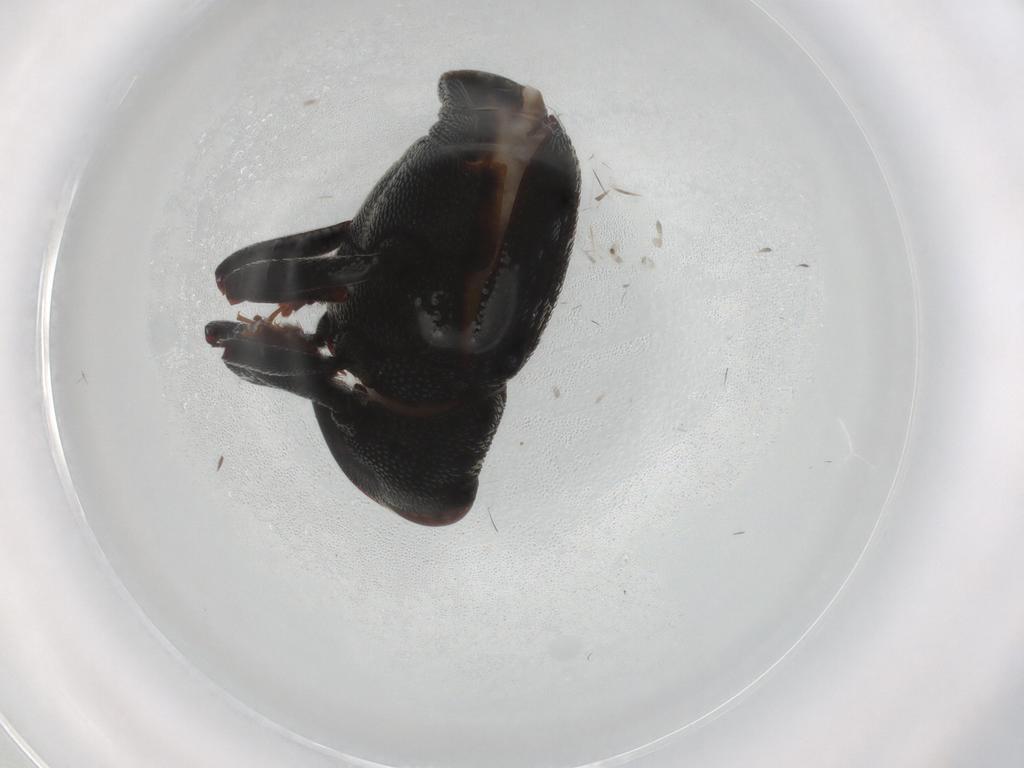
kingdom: Animalia
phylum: Arthropoda
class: Insecta
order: Coleoptera
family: Curculionidae
